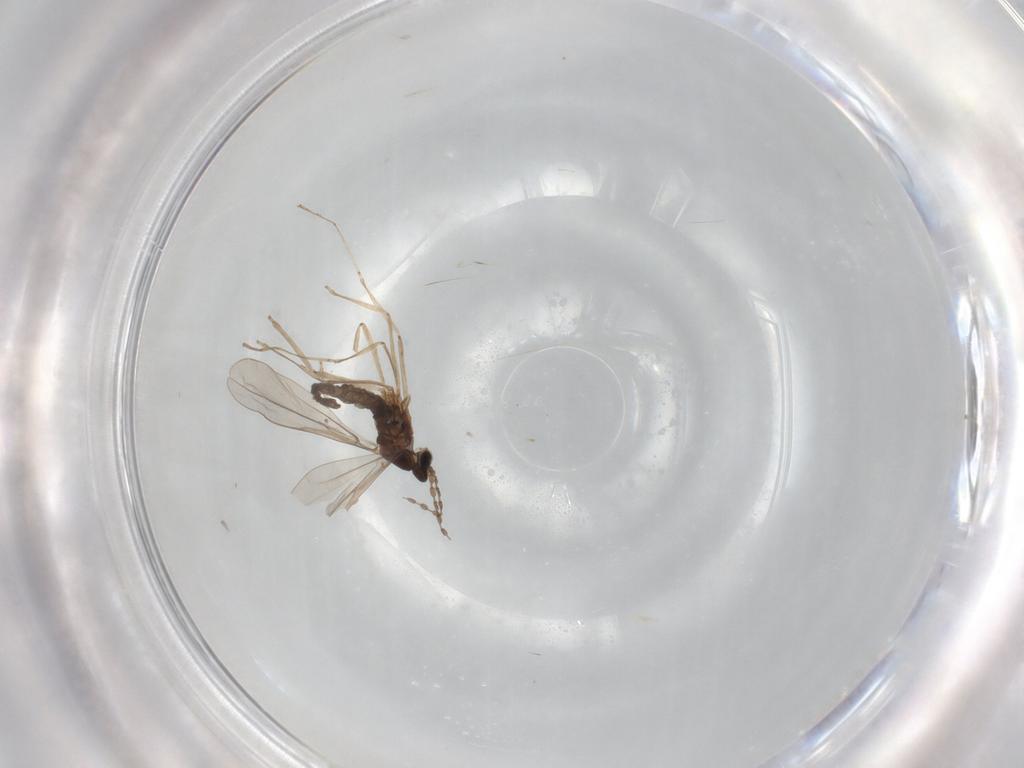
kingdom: Animalia
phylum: Arthropoda
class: Insecta
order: Diptera
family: Cecidomyiidae
